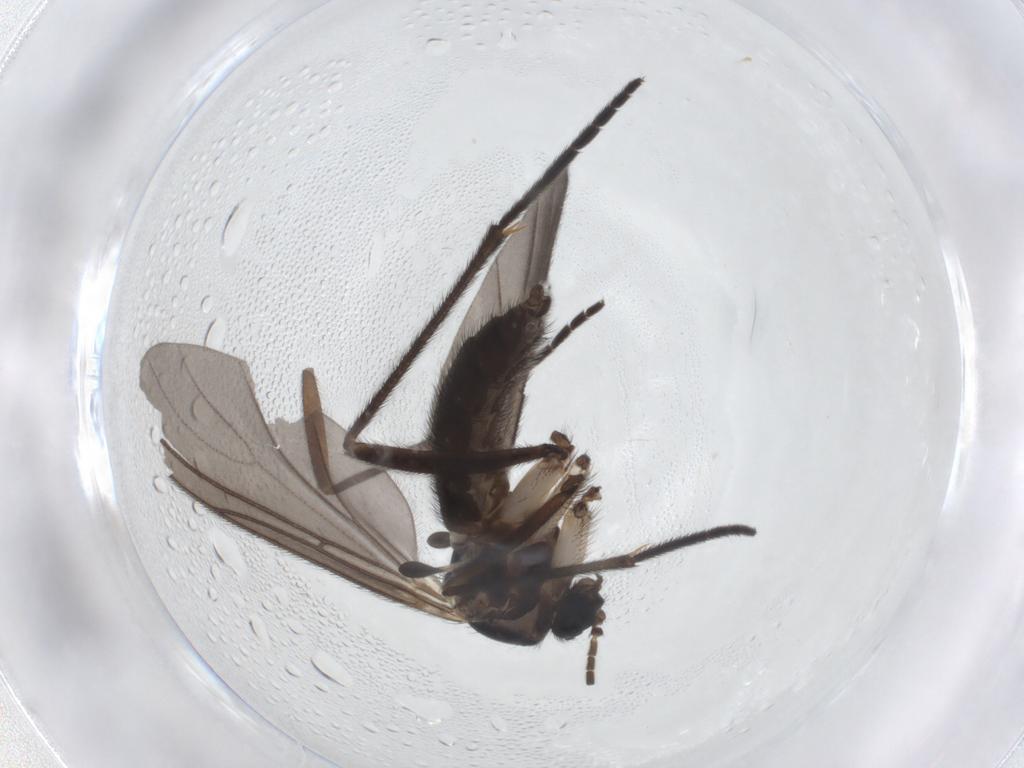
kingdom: Animalia
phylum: Arthropoda
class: Insecta
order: Diptera
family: Sciaridae
